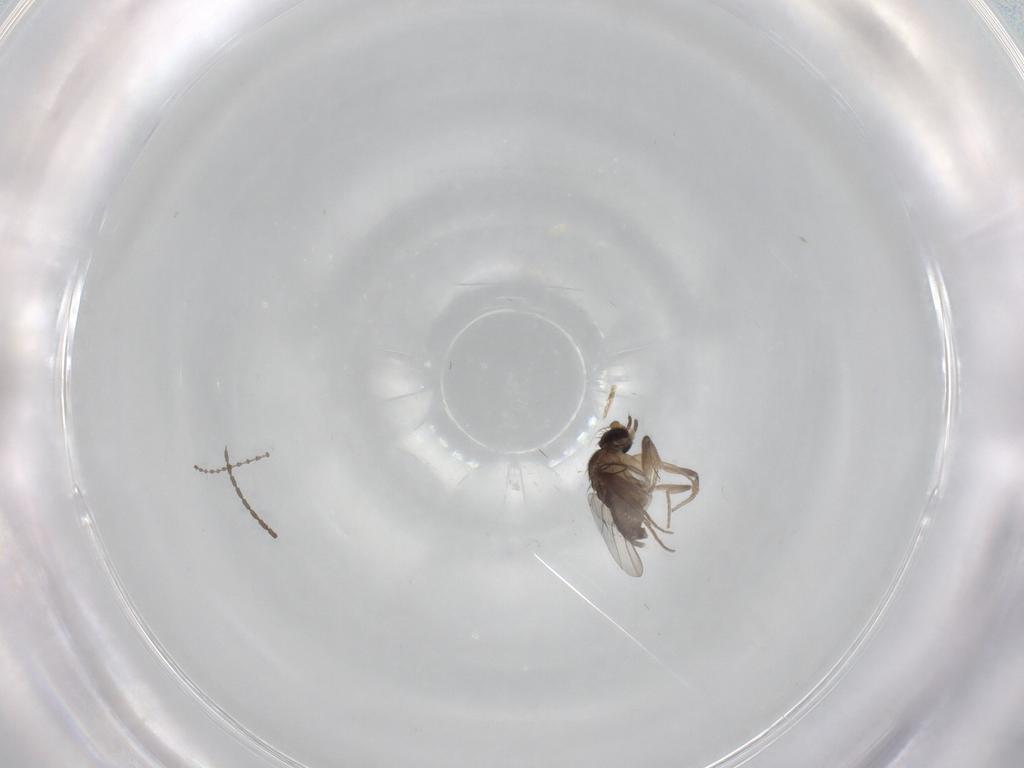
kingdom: Animalia
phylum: Arthropoda
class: Insecta
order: Diptera
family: Cecidomyiidae
